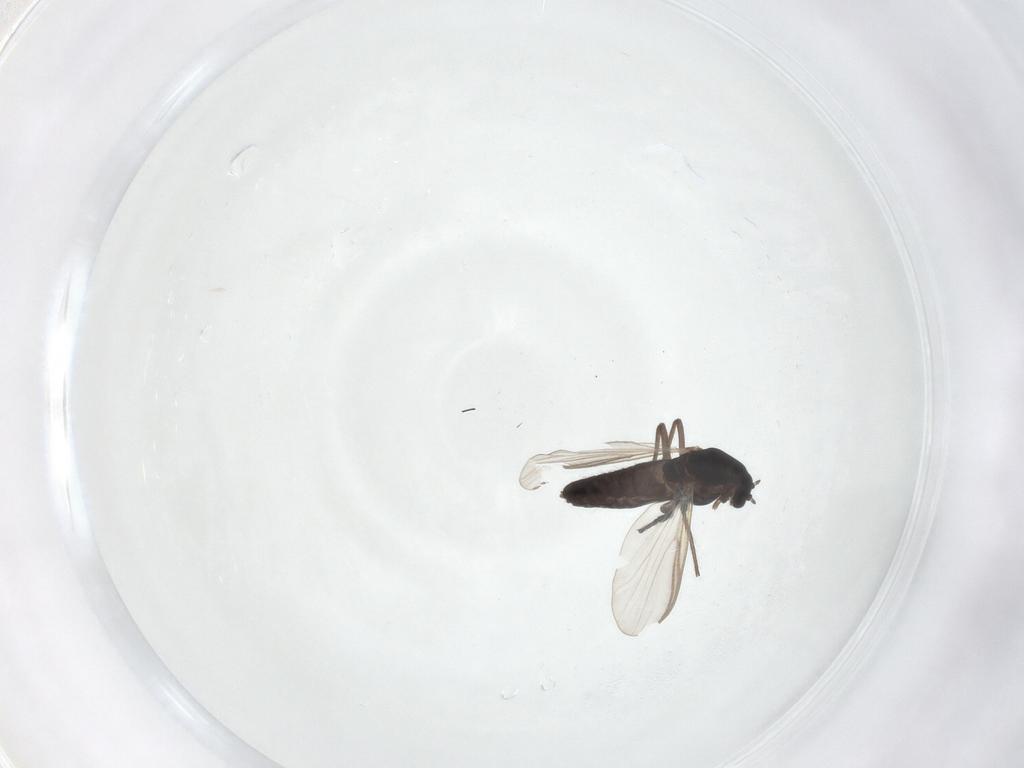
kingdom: Animalia
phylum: Arthropoda
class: Insecta
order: Diptera
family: Chironomidae
